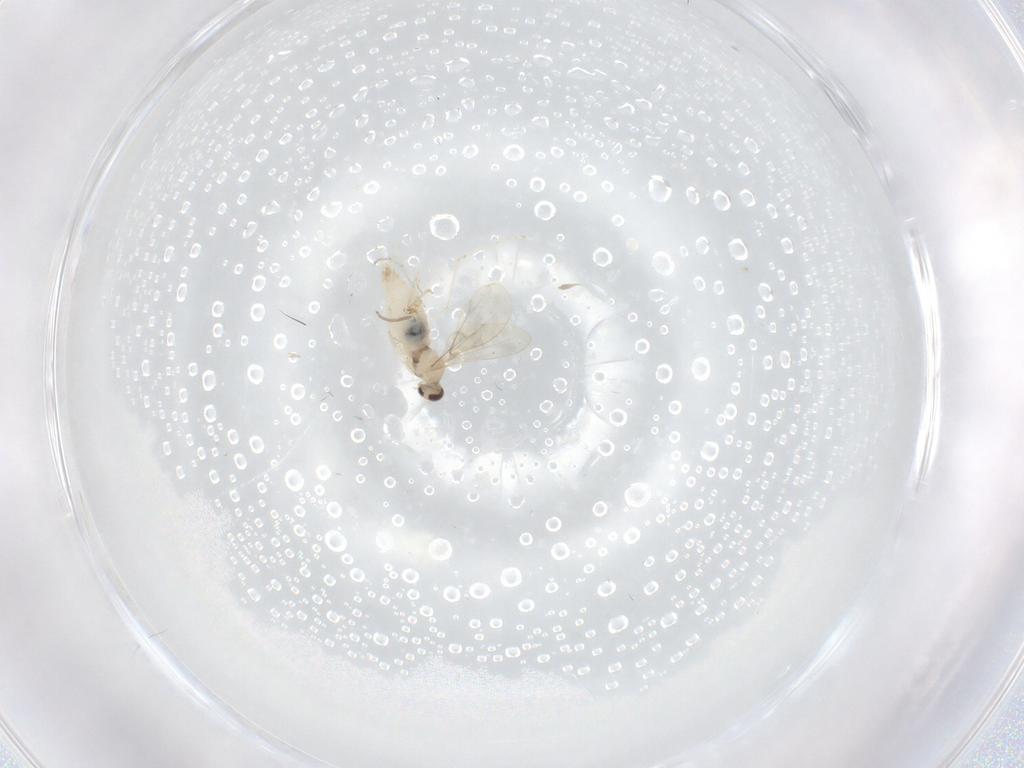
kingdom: Animalia
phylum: Arthropoda
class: Insecta
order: Diptera
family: Cecidomyiidae
